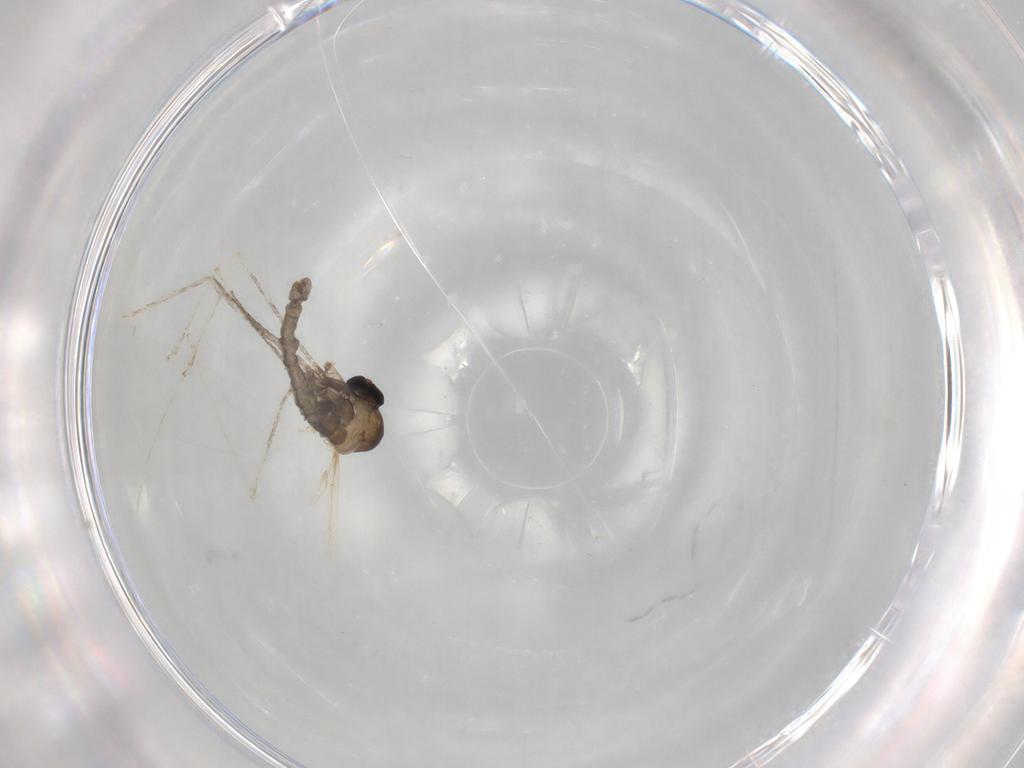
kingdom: Animalia
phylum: Arthropoda
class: Insecta
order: Diptera
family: Cecidomyiidae
